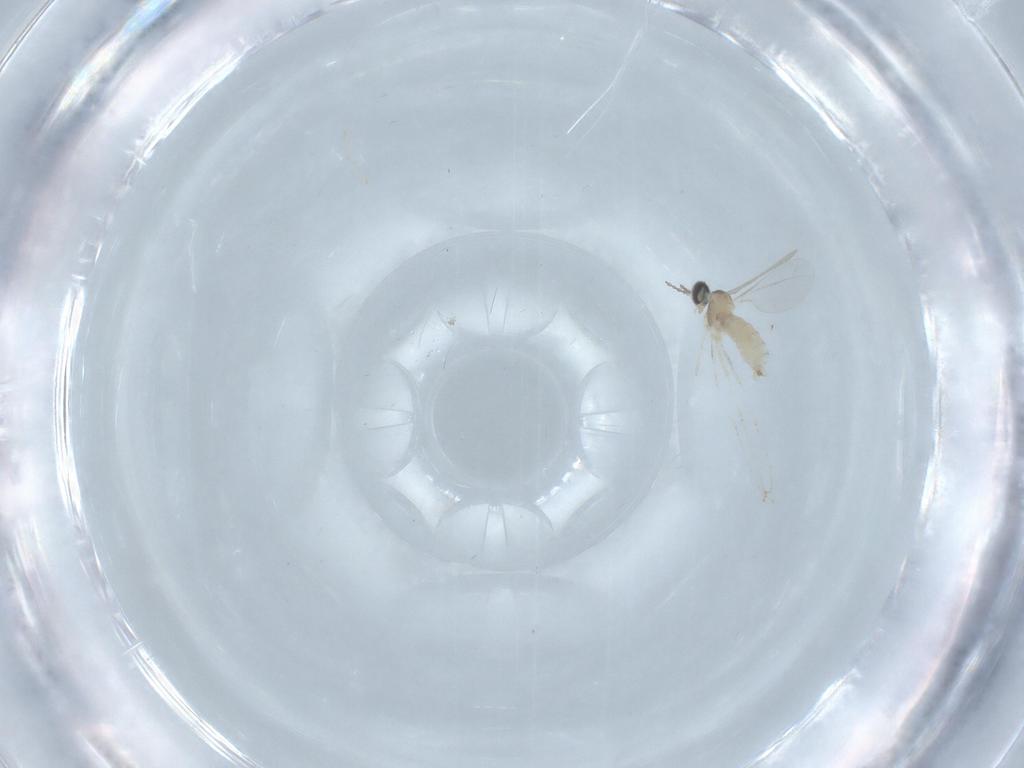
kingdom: Animalia
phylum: Arthropoda
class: Insecta
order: Diptera
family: Cecidomyiidae
